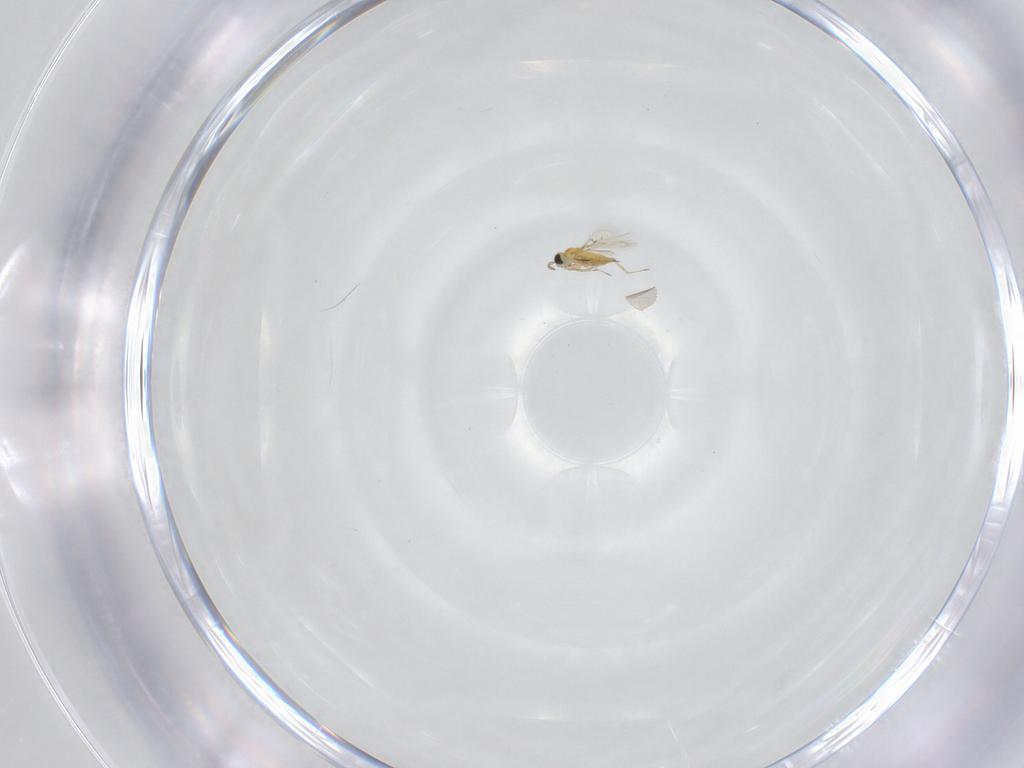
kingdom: Animalia
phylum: Arthropoda
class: Insecta
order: Hymenoptera
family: Trichogrammatidae
